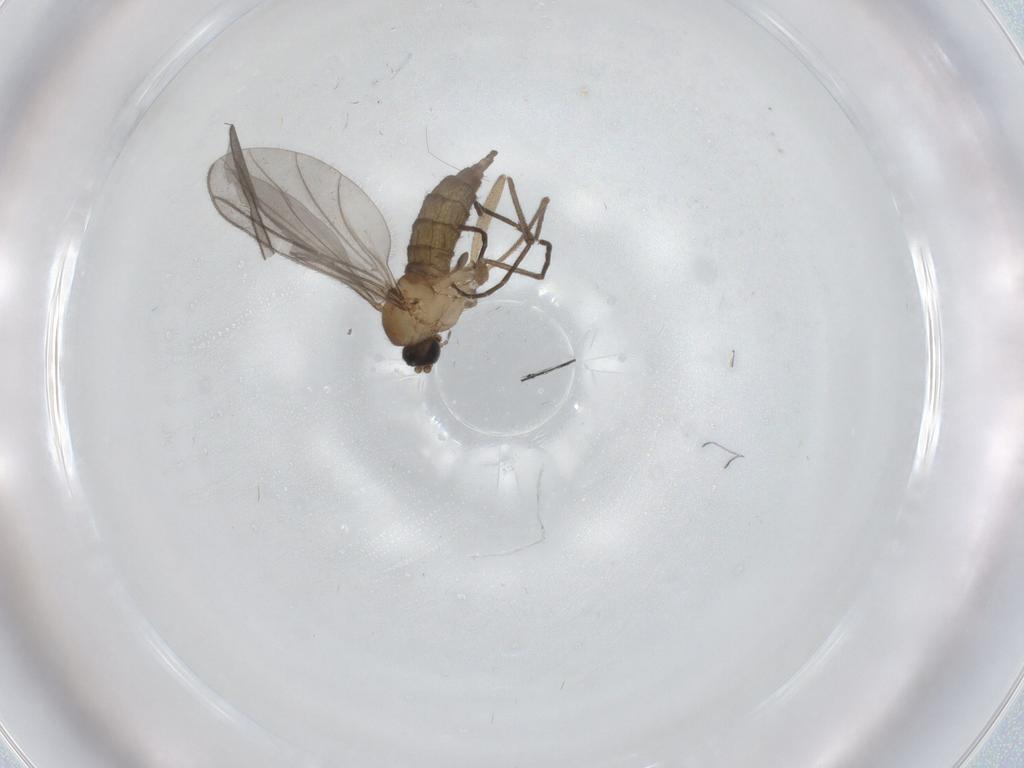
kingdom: Animalia
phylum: Arthropoda
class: Insecta
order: Diptera
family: Sciaridae
